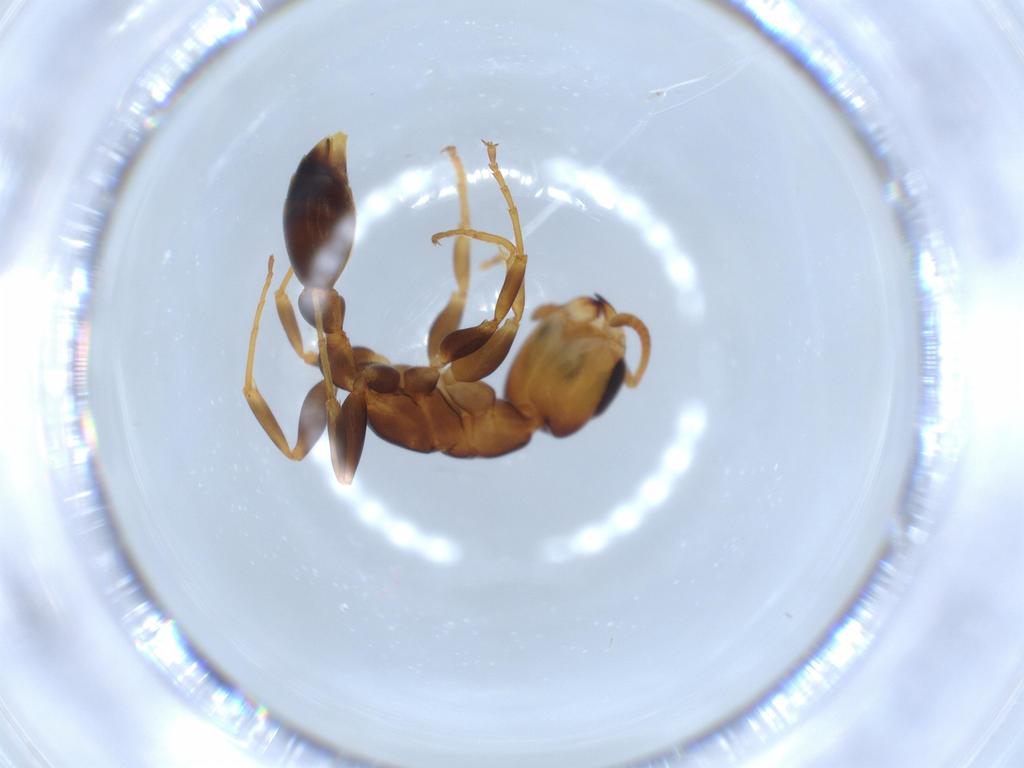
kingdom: Animalia
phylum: Arthropoda
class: Insecta
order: Hymenoptera
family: Formicidae
